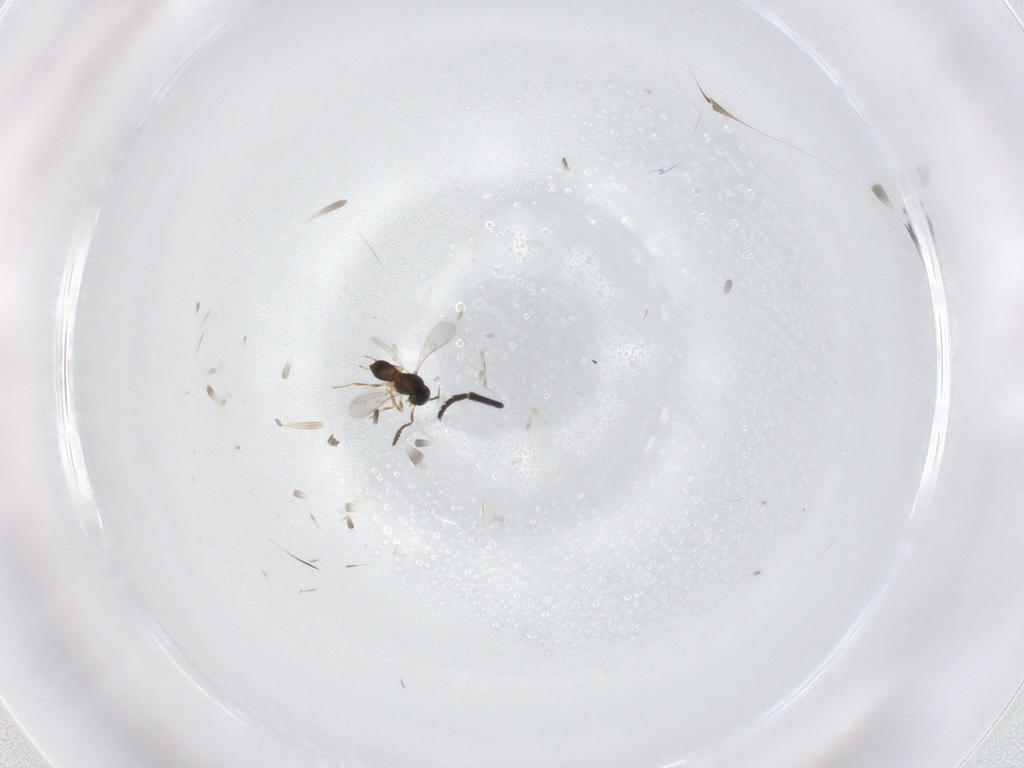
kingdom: Animalia
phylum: Arthropoda
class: Insecta
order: Hymenoptera
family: Scelionidae
